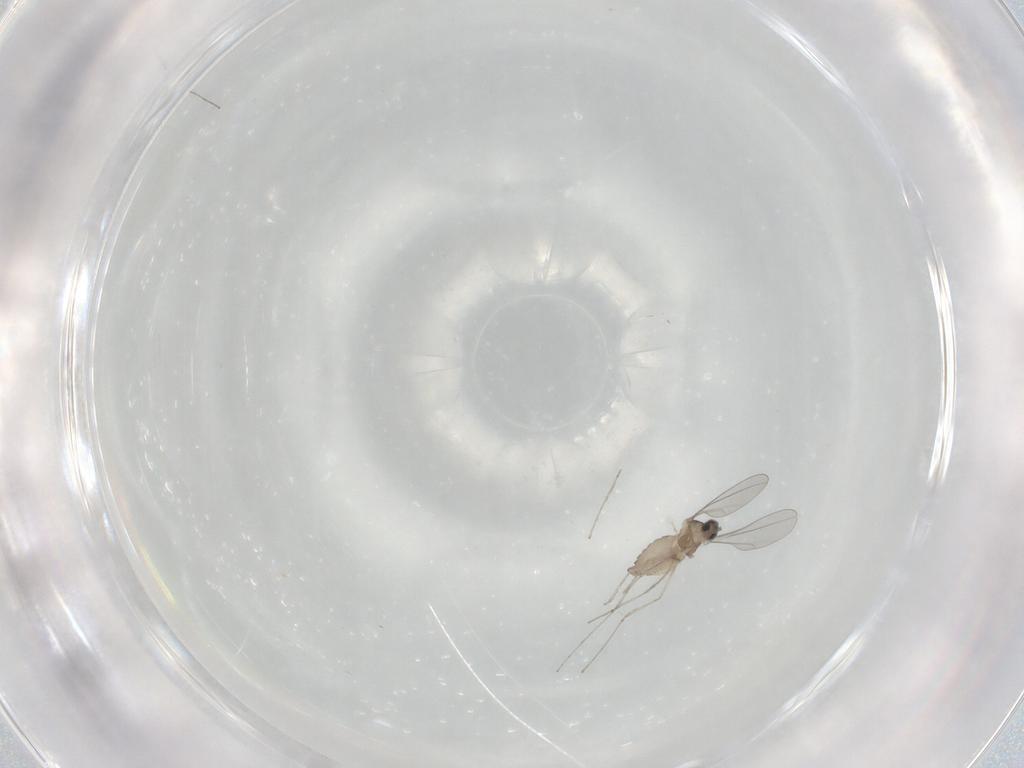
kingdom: Animalia
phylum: Arthropoda
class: Insecta
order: Diptera
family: Cecidomyiidae
